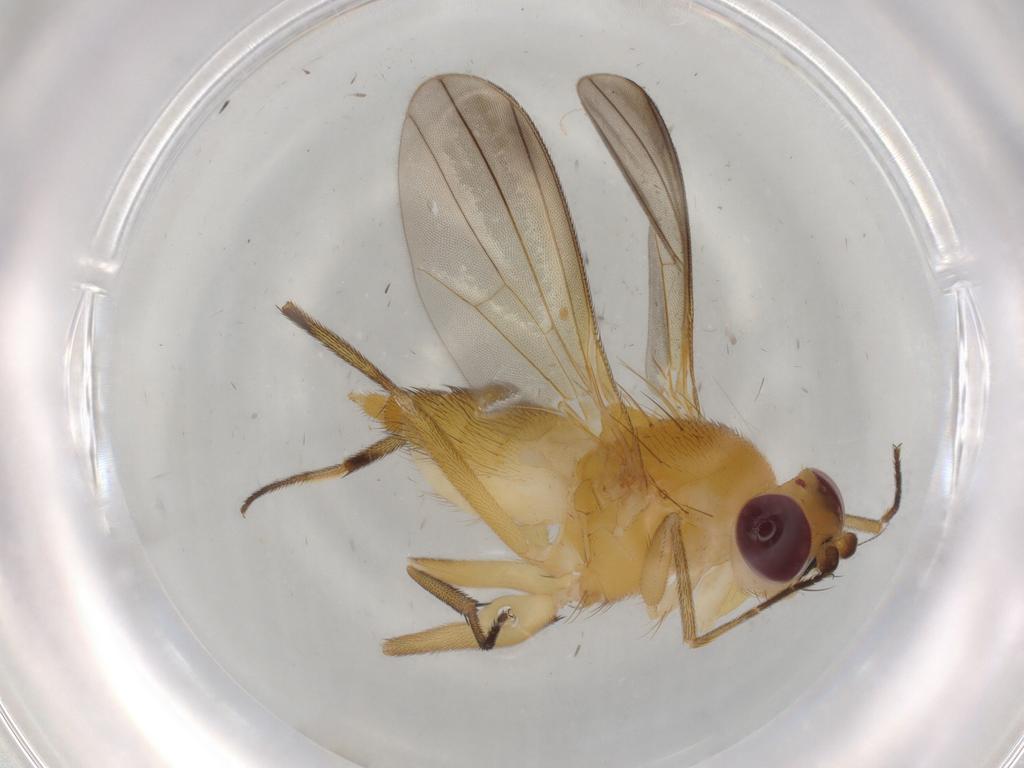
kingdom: Animalia
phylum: Arthropoda
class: Insecta
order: Diptera
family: Clusiidae
